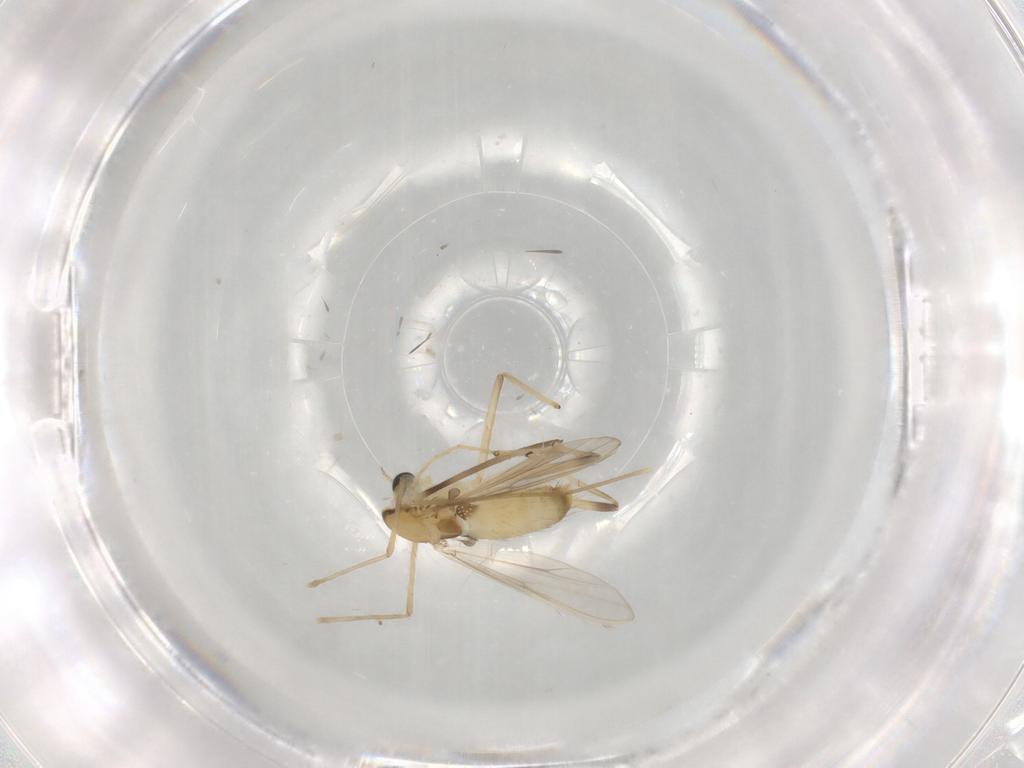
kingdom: Animalia
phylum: Arthropoda
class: Insecta
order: Diptera
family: Chironomidae
